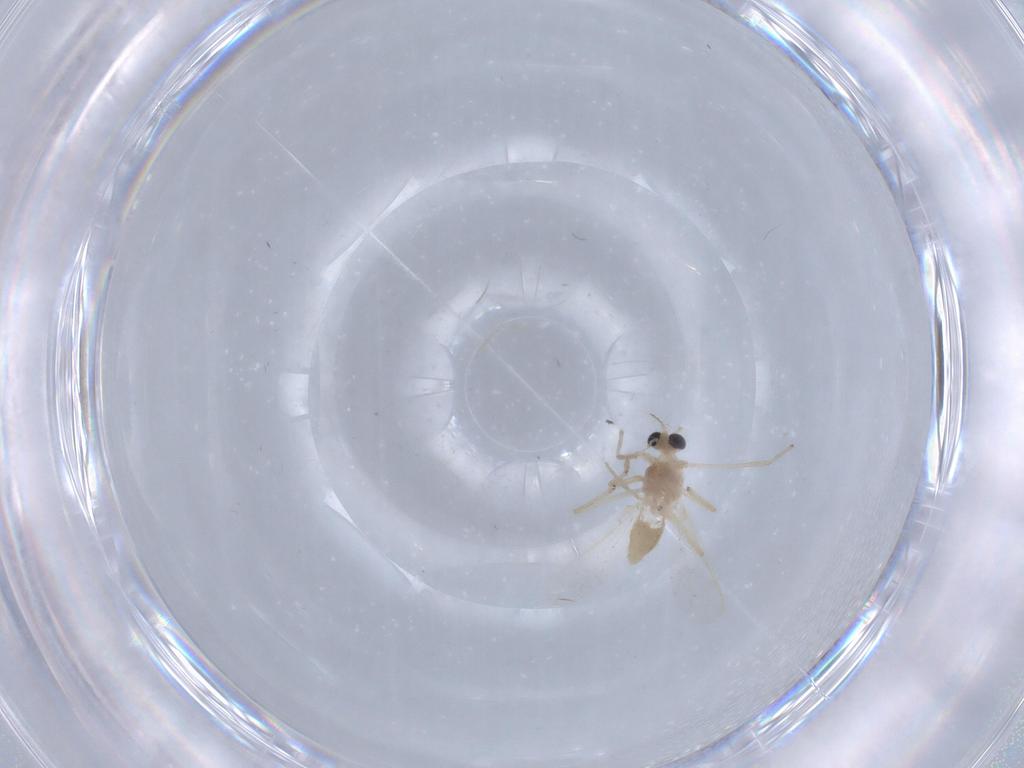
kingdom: Animalia
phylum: Arthropoda
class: Insecta
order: Diptera
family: Chironomidae
